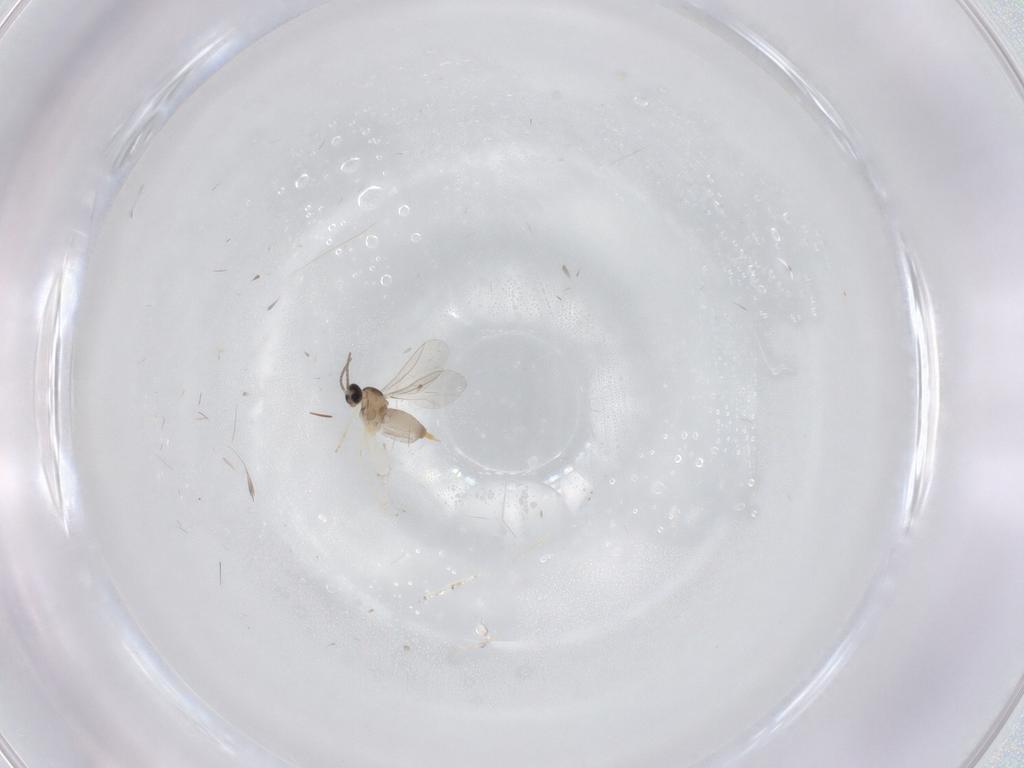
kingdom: Animalia
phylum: Arthropoda
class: Insecta
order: Diptera
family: Cecidomyiidae
